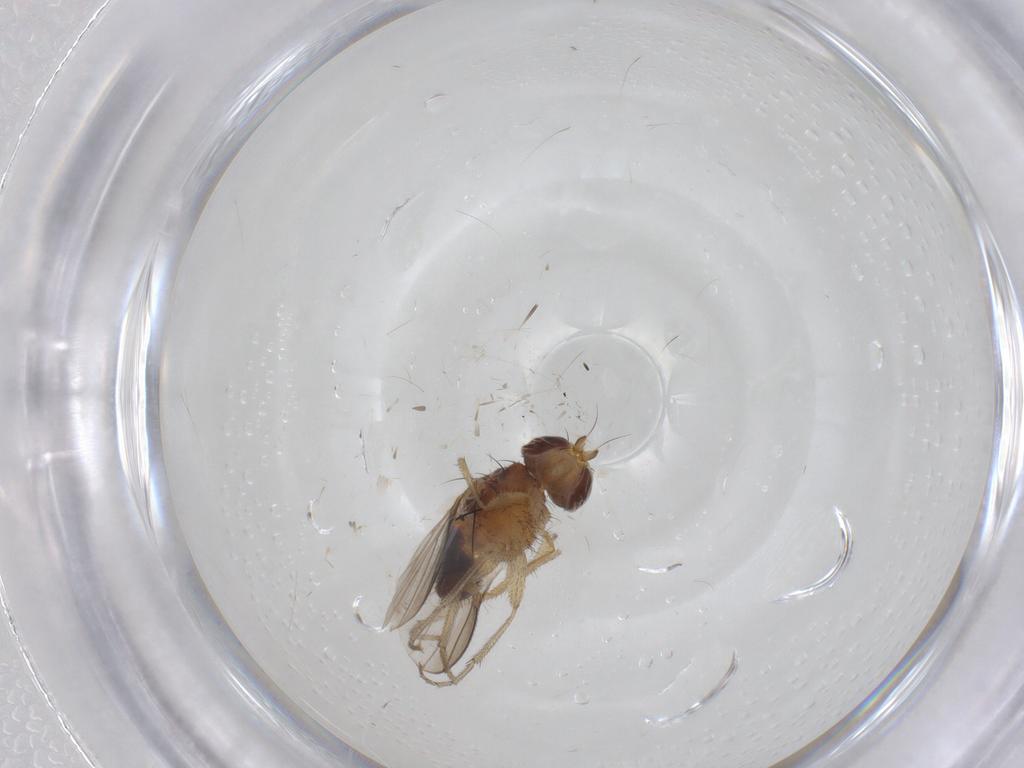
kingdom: Animalia
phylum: Arthropoda
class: Insecta
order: Diptera
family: Heleomyzidae
